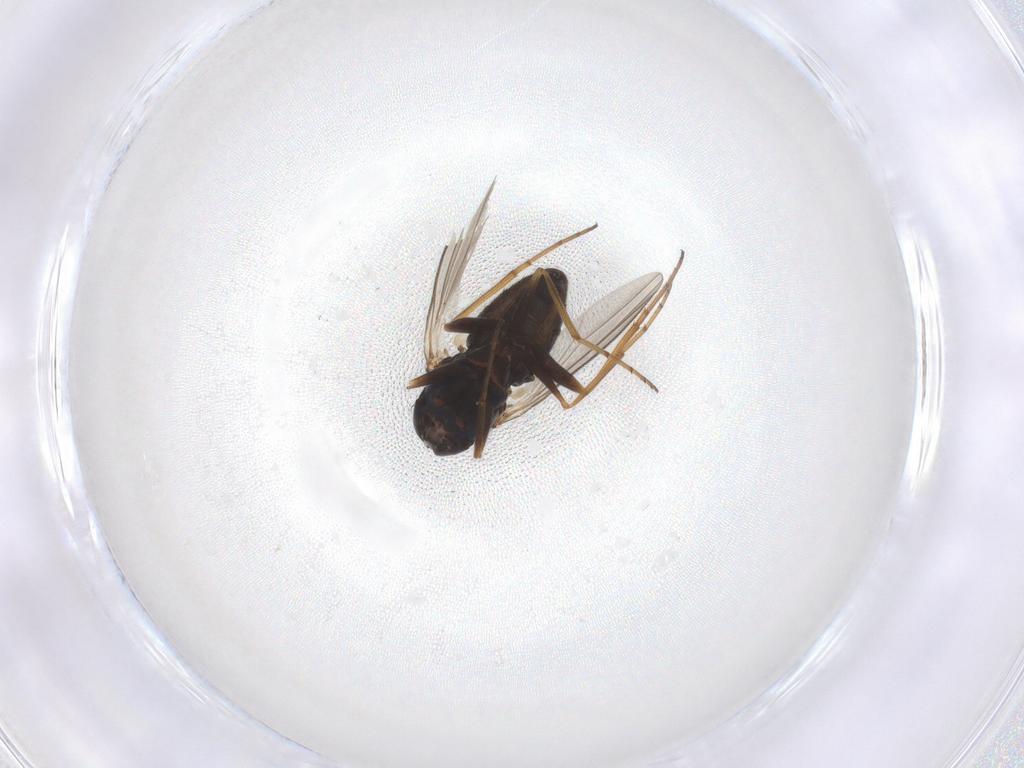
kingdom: Animalia
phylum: Arthropoda
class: Insecta
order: Diptera
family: Dolichopodidae
